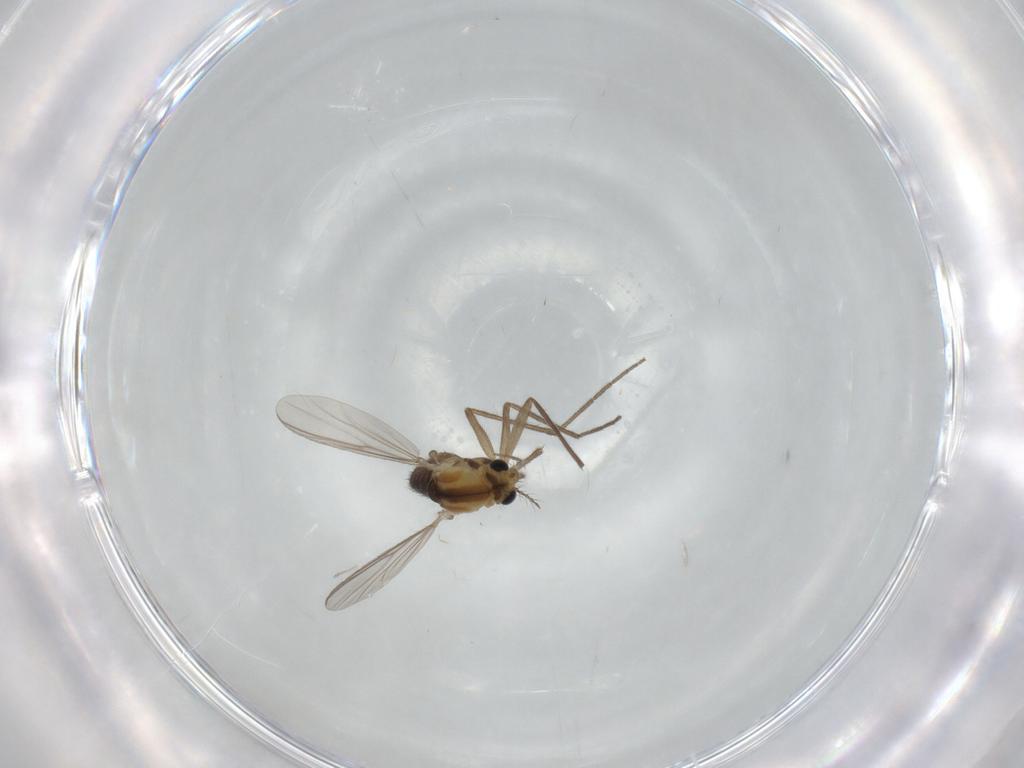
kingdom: Animalia
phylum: Arthropoda
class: Insecta
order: Diptera
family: Chironomidae
